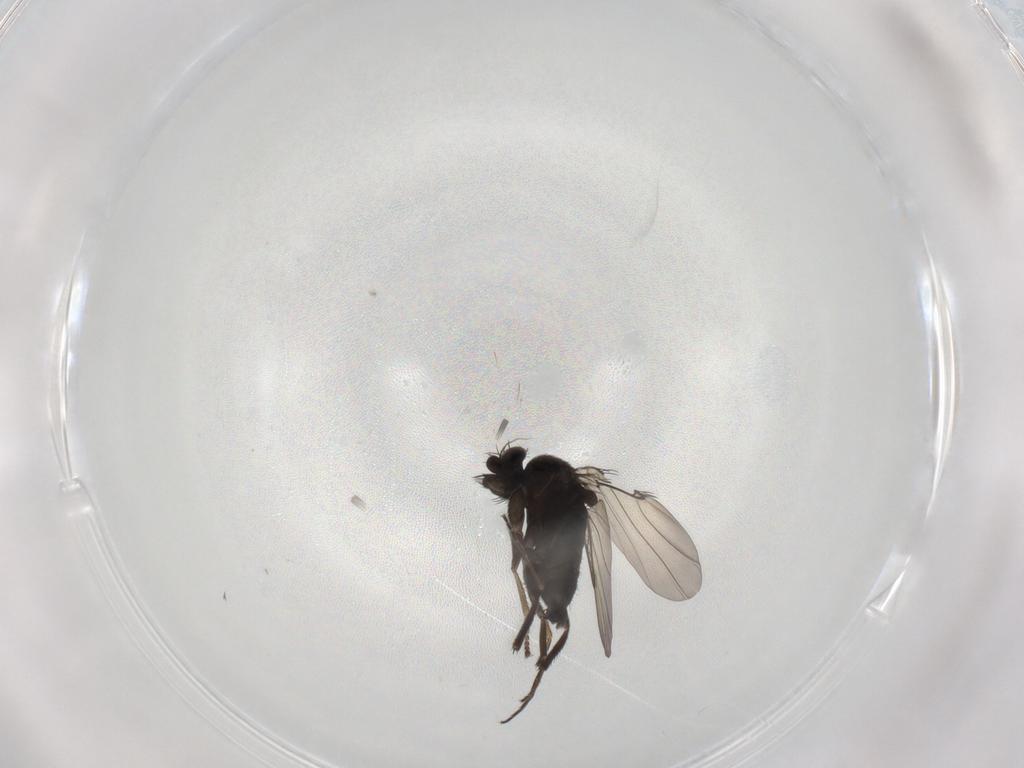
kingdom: Animalia
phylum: Arthropoda
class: Insecta
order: Diptera
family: Phoridae
